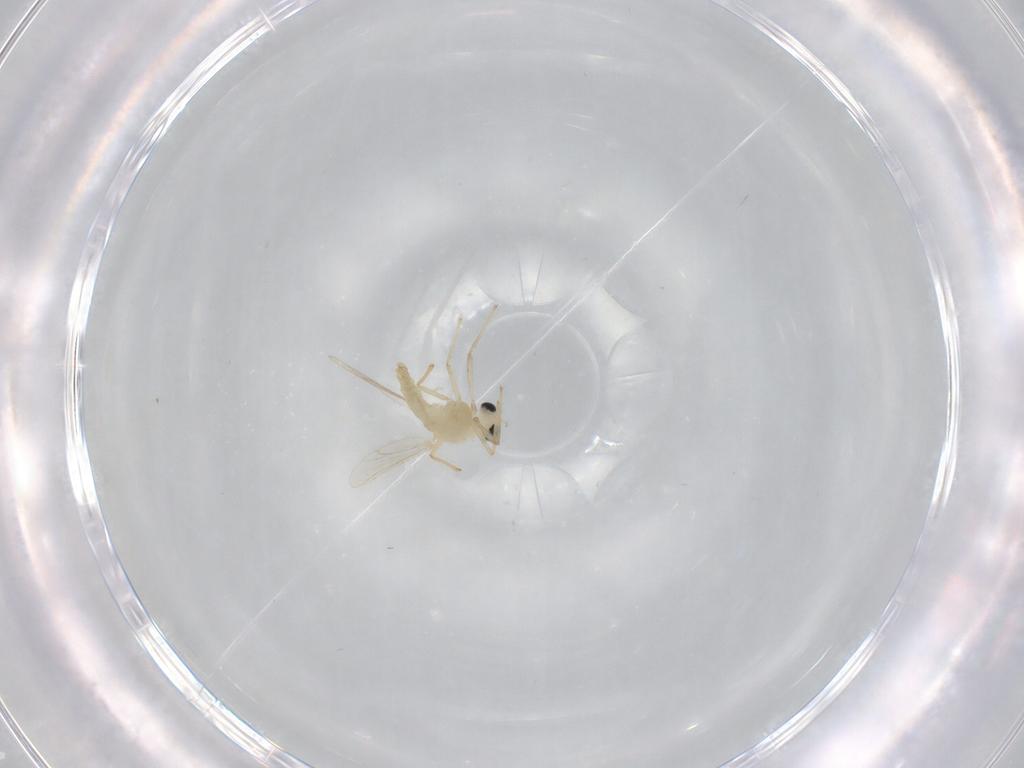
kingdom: Animalia
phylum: Arthropoda
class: Insecta
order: Diptera
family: Chironomidae
